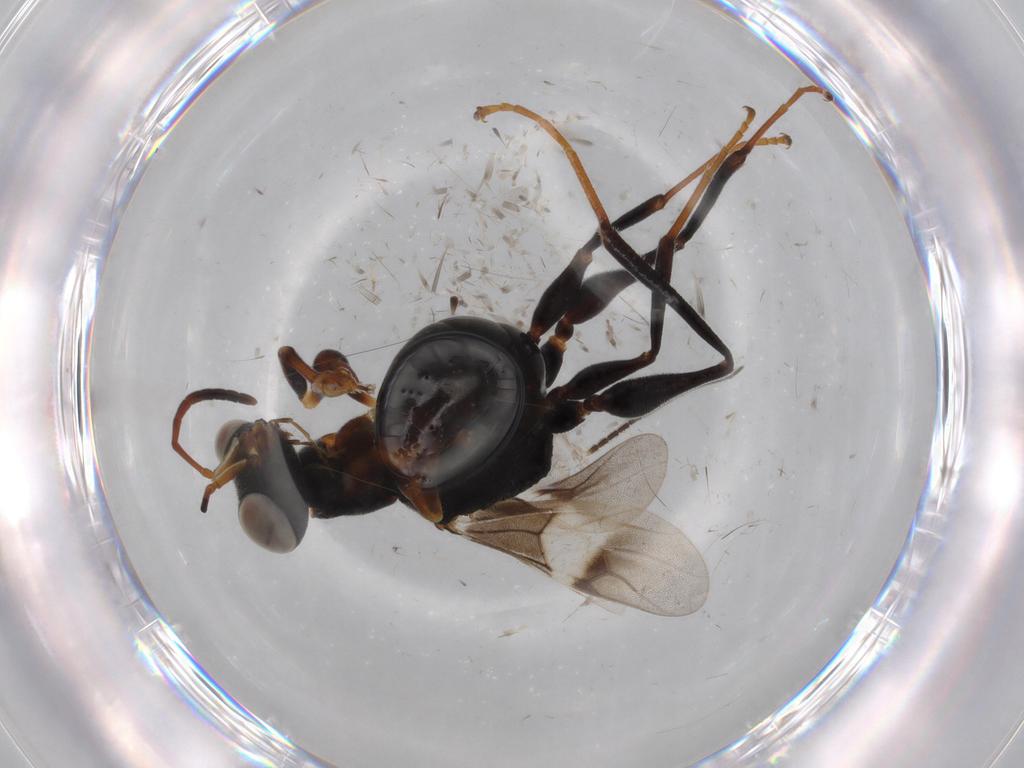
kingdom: Animalia
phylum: Arthropoda
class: Insecta
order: Hymenoptera
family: Dryinidae
